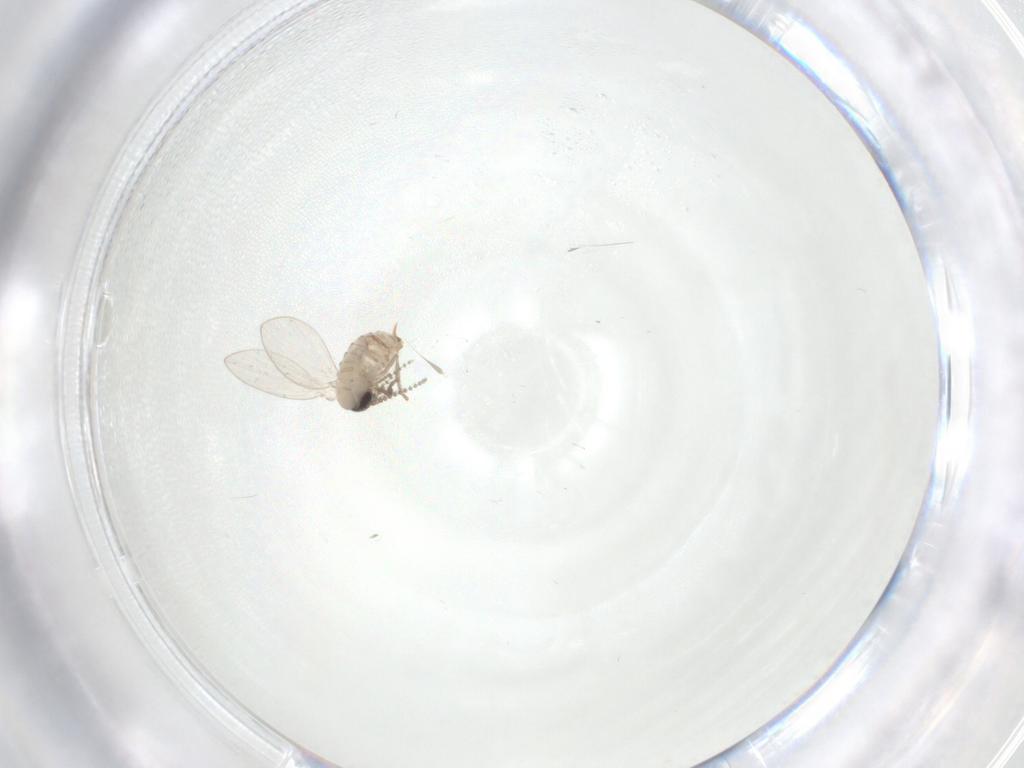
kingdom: Animalia
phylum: Arthropoda
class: Insecta
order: Diptera
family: Psychodidae
